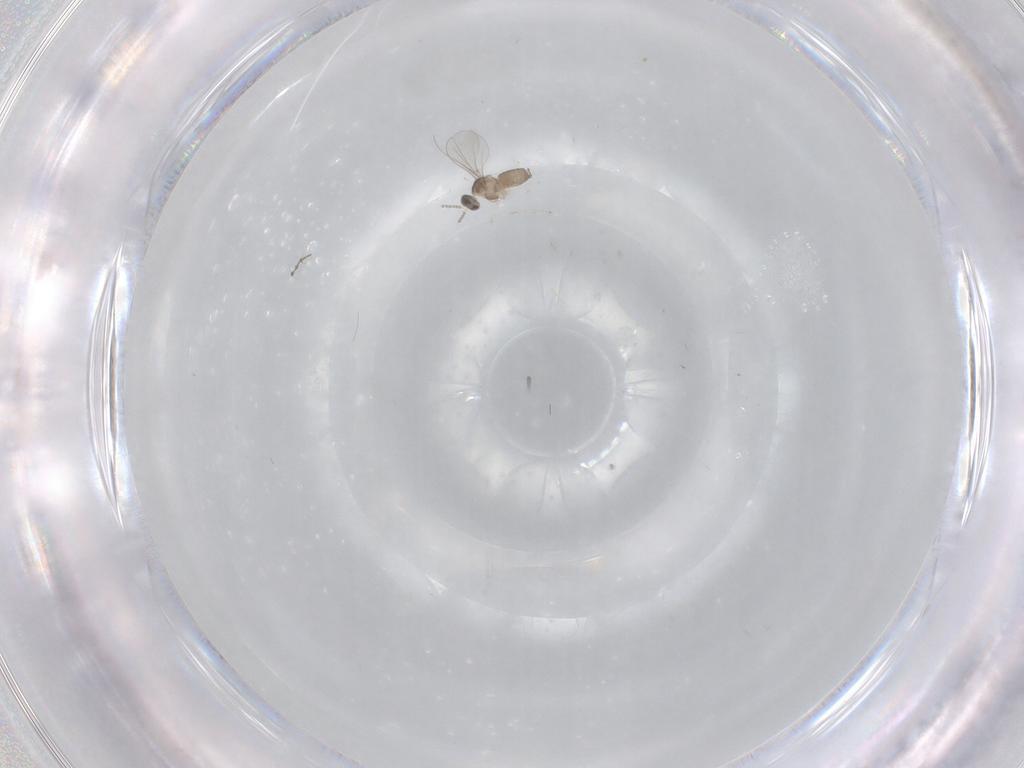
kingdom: Animalia
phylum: Arthropoda
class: Insecta
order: Diptera
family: Cecidomyiidae
